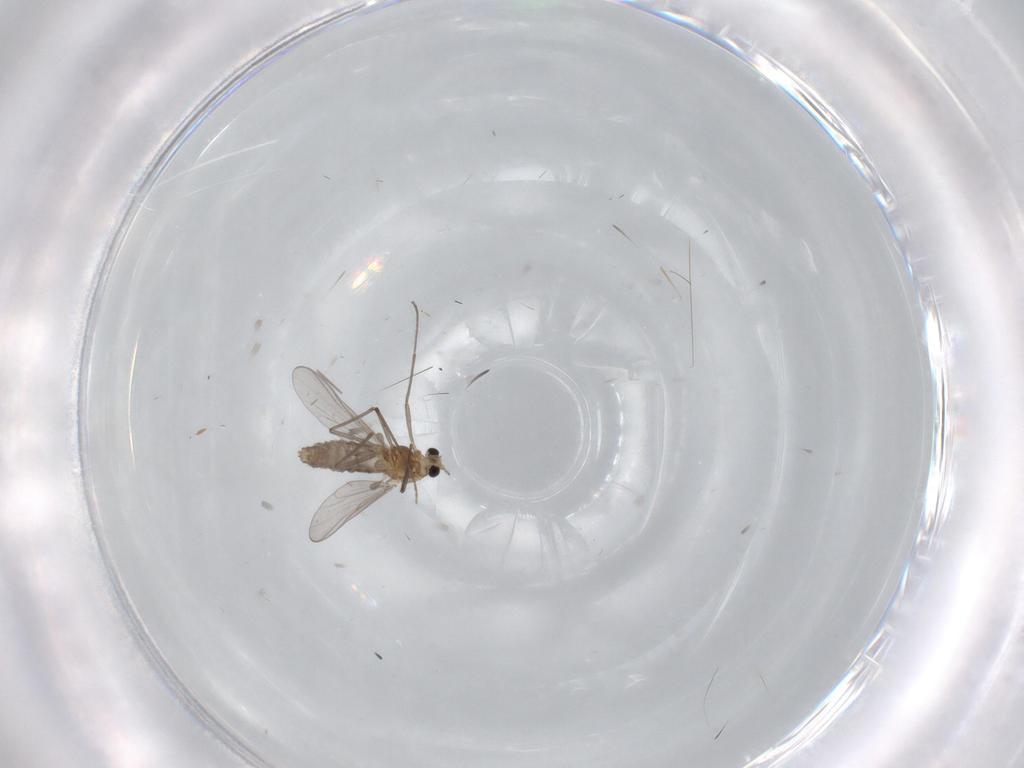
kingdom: Animalia
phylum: Arthropoda
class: Insecta
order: Diptera
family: Chironomidae
